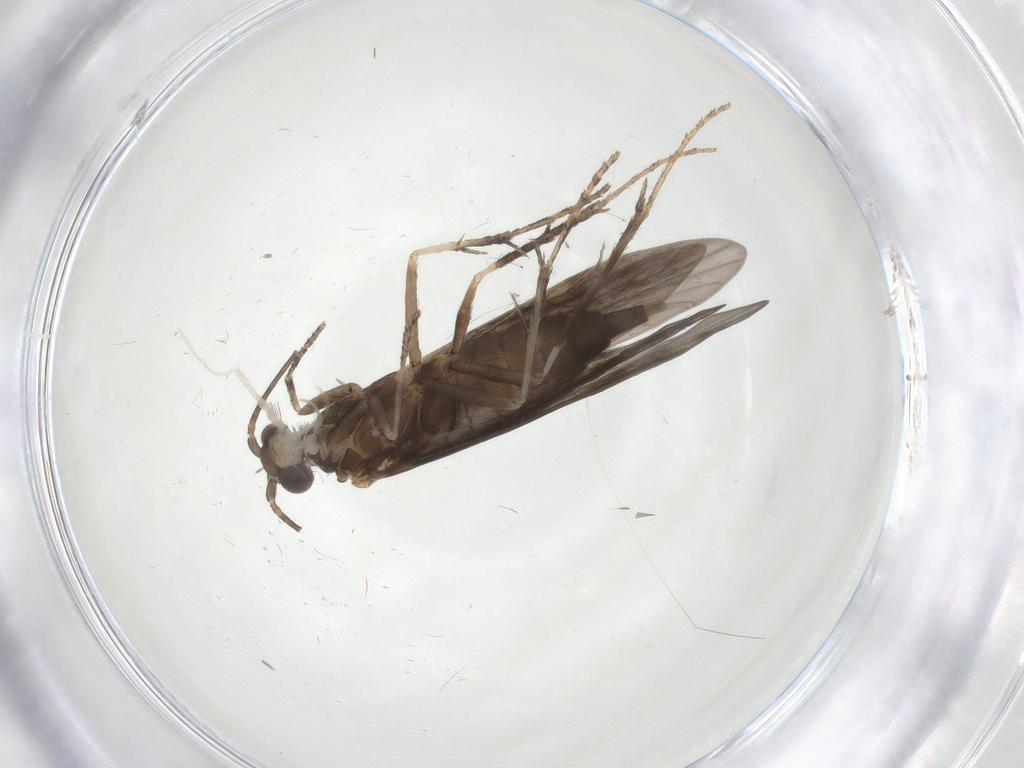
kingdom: Animalia
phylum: Arthropoda
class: Insecta
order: Trichoptera
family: Xiphocentronidae
